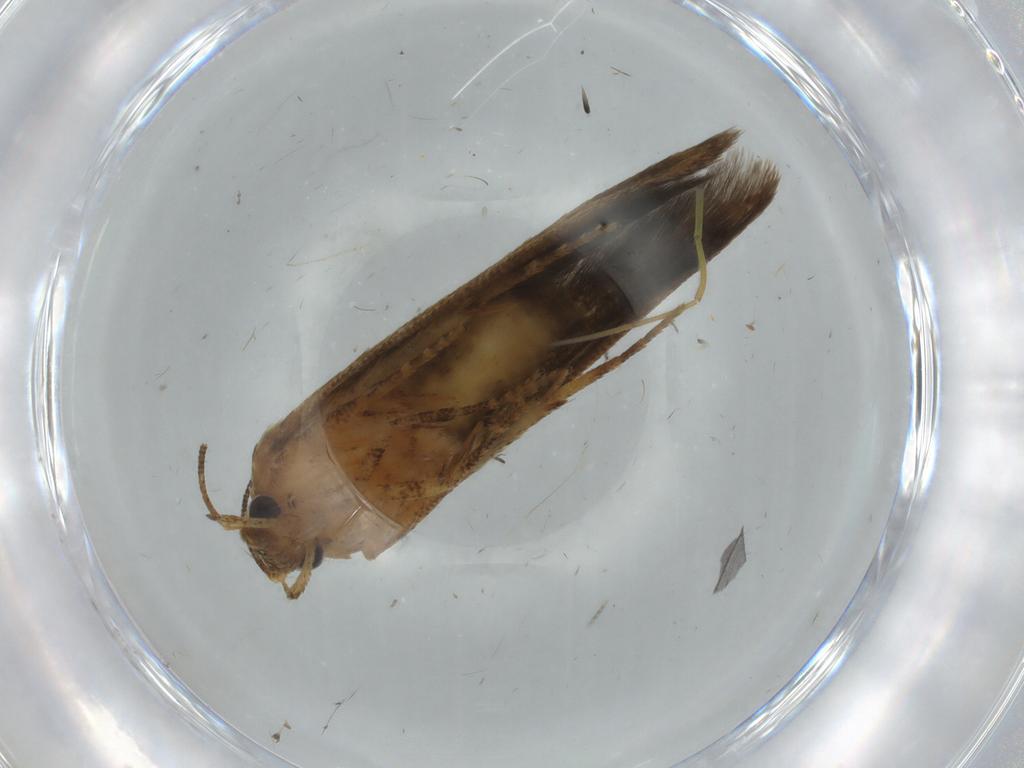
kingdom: Animalia
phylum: Arthropoda
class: Insecta
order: Lepidoptera
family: Blastobasidae
